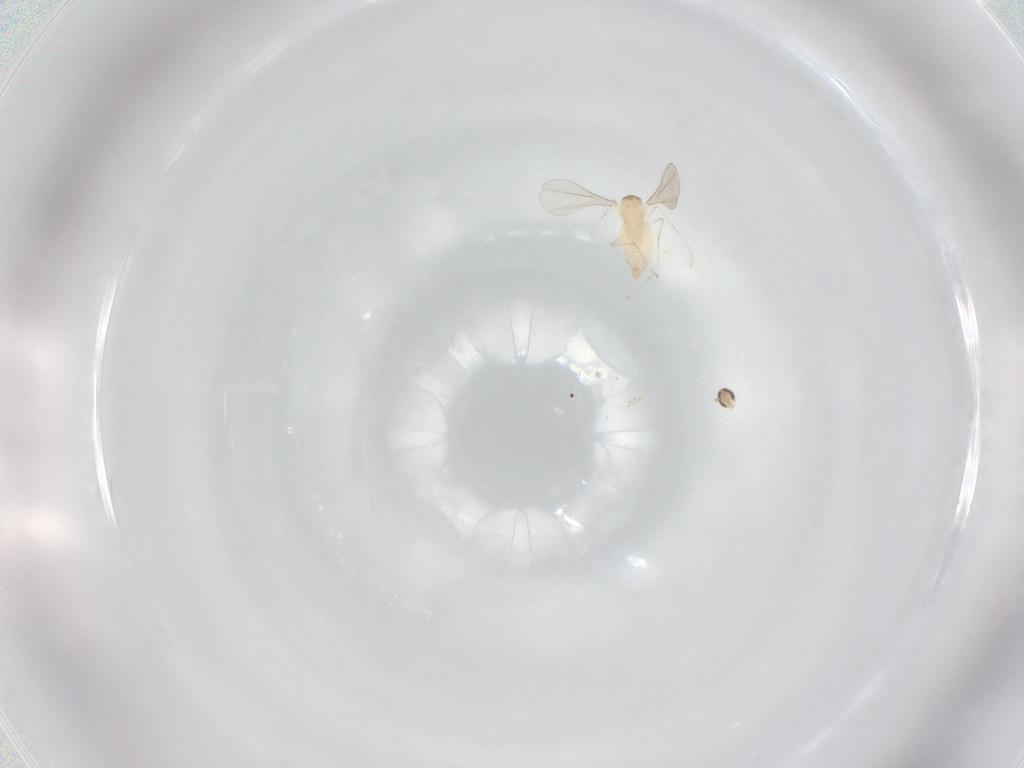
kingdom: Animalia
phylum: Arthropoda
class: Insecta
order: Diptera
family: Cecidomyiidae
